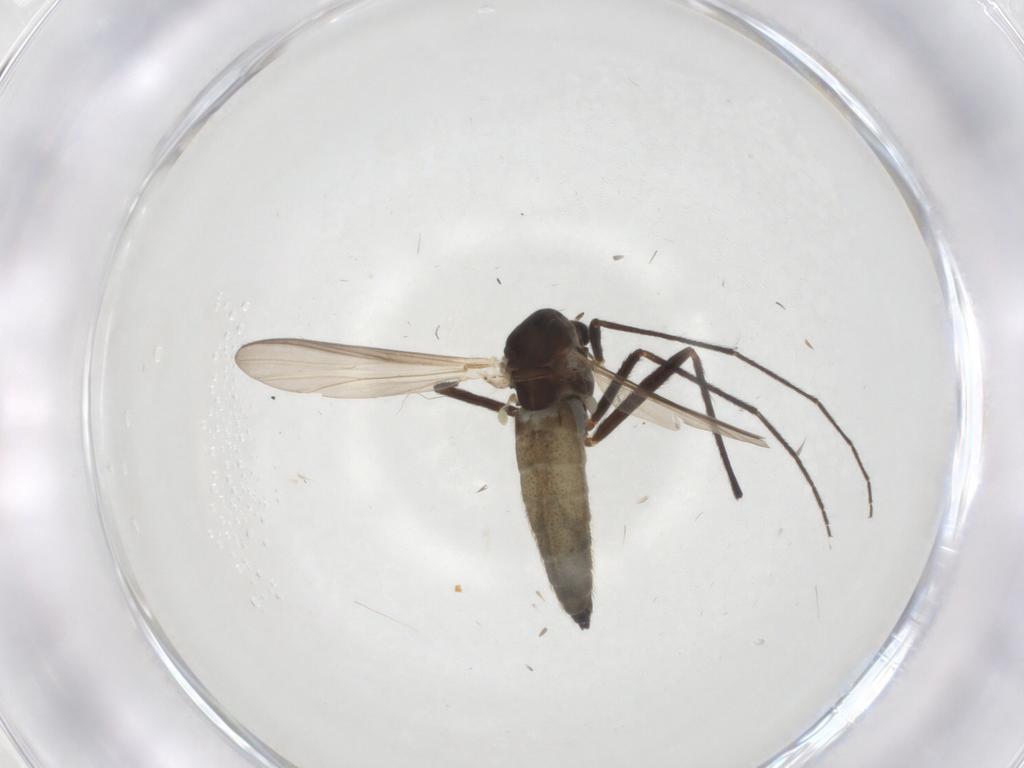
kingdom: Animalia
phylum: Arthropoda
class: Insecta
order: Diptera
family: Chironomidae
